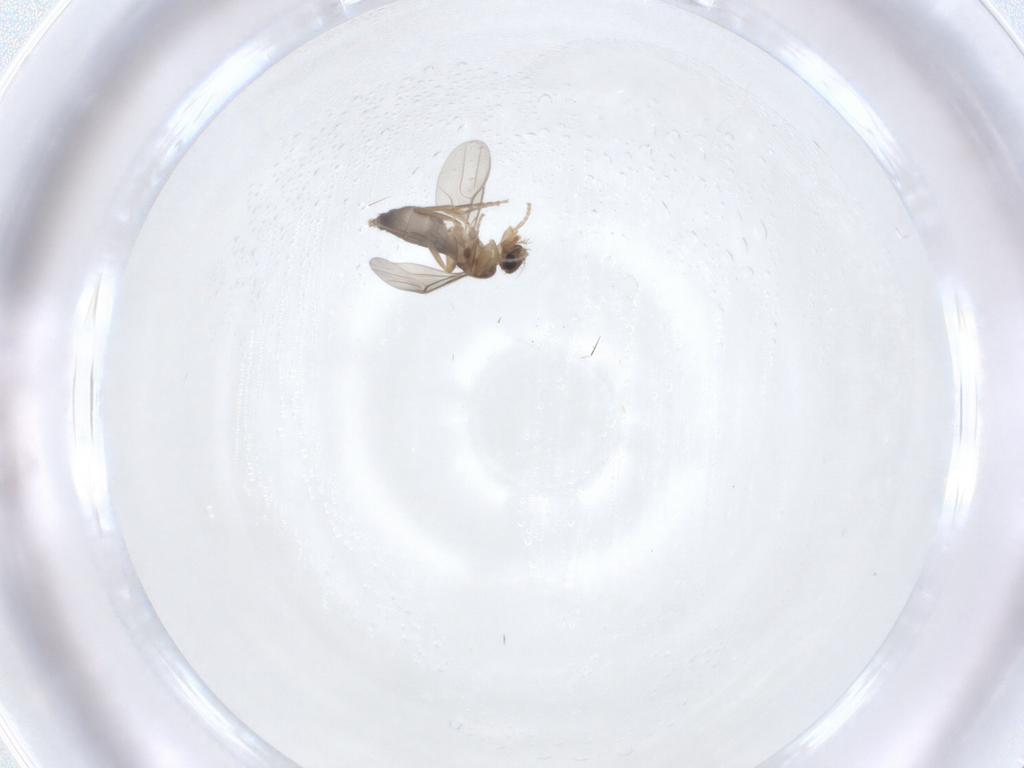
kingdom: Animalia
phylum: Arthropoda
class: Insecta
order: Diptera
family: Phoridae
